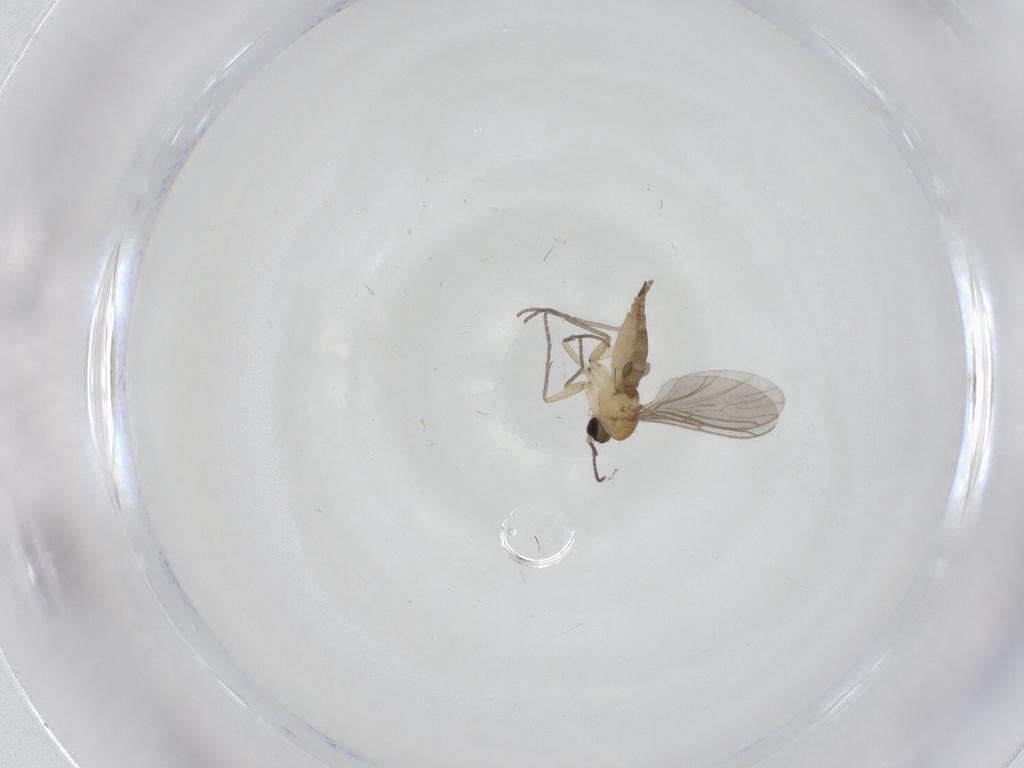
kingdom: Animalia
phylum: Arthropoda
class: Insecta
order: Diptera
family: Sciaridae
